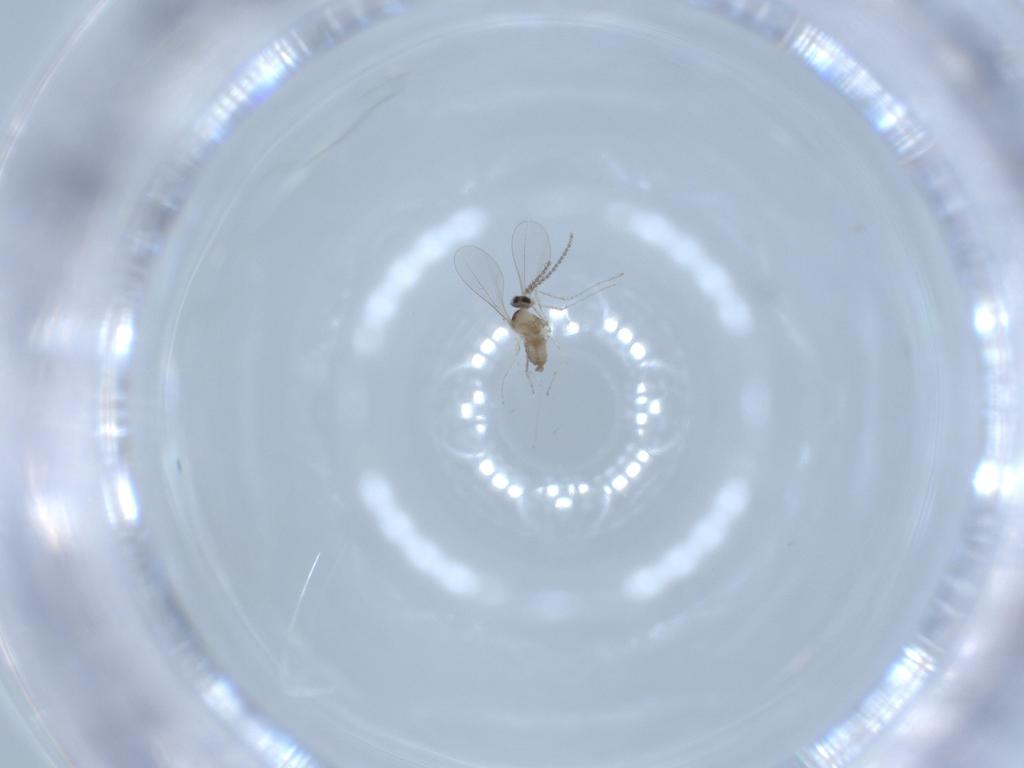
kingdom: Animalia
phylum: Arthropoda
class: Insecta
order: Diptera
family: Cecidomyiidae
